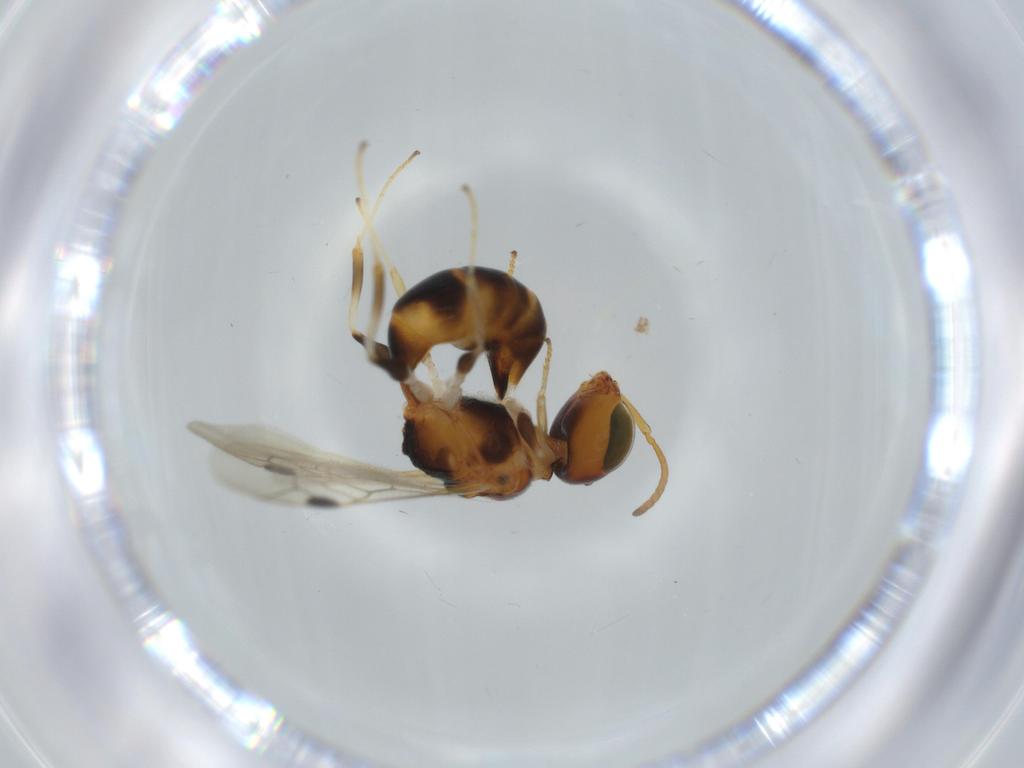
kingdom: Animalia
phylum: Arthropoda
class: Insecta
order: Hymenoptera
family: Pemphredonidae
